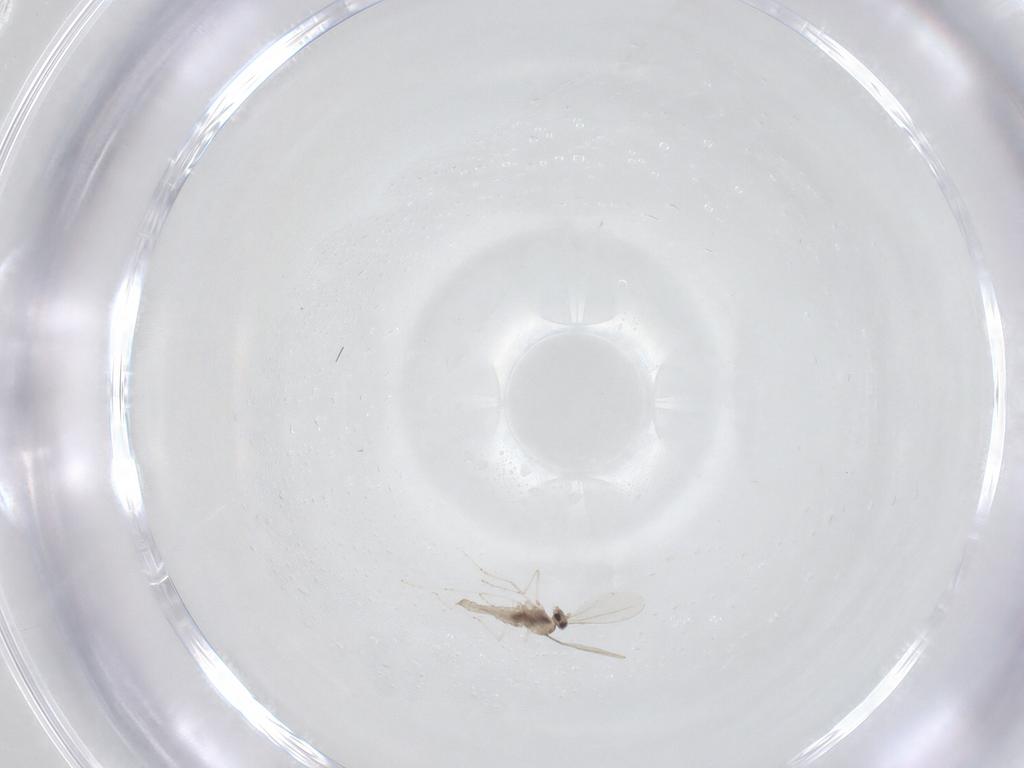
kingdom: Animalia
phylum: Arthropoda
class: Insecta
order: Diptera
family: Cecidomyiidae
